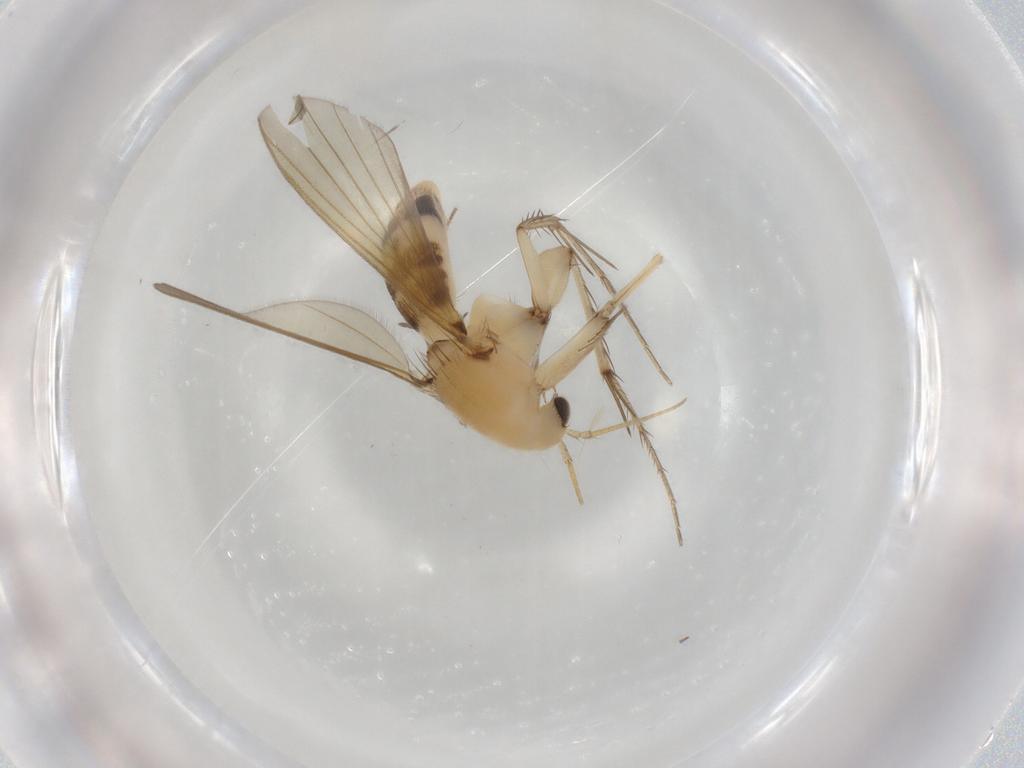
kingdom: Animalia
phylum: Arthropoda
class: Insecta
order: Diptera
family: Mycetophilidae
